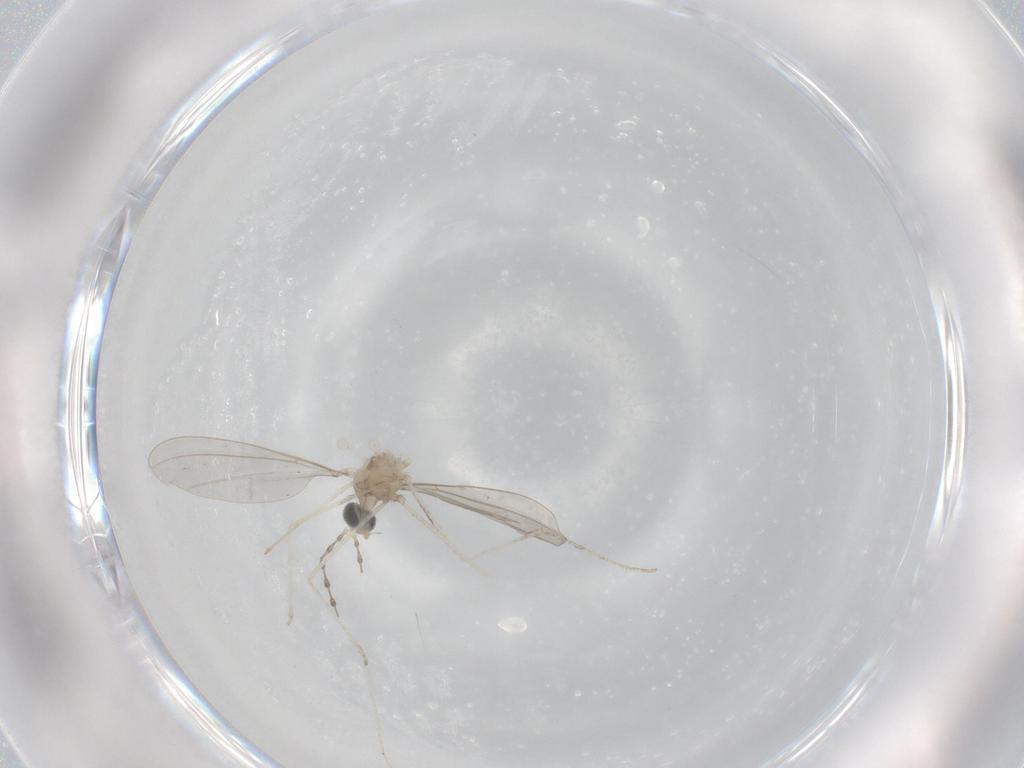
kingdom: Animalia
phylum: Arthropoda
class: Insecta
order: Diptera
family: Cecidomyiidae
